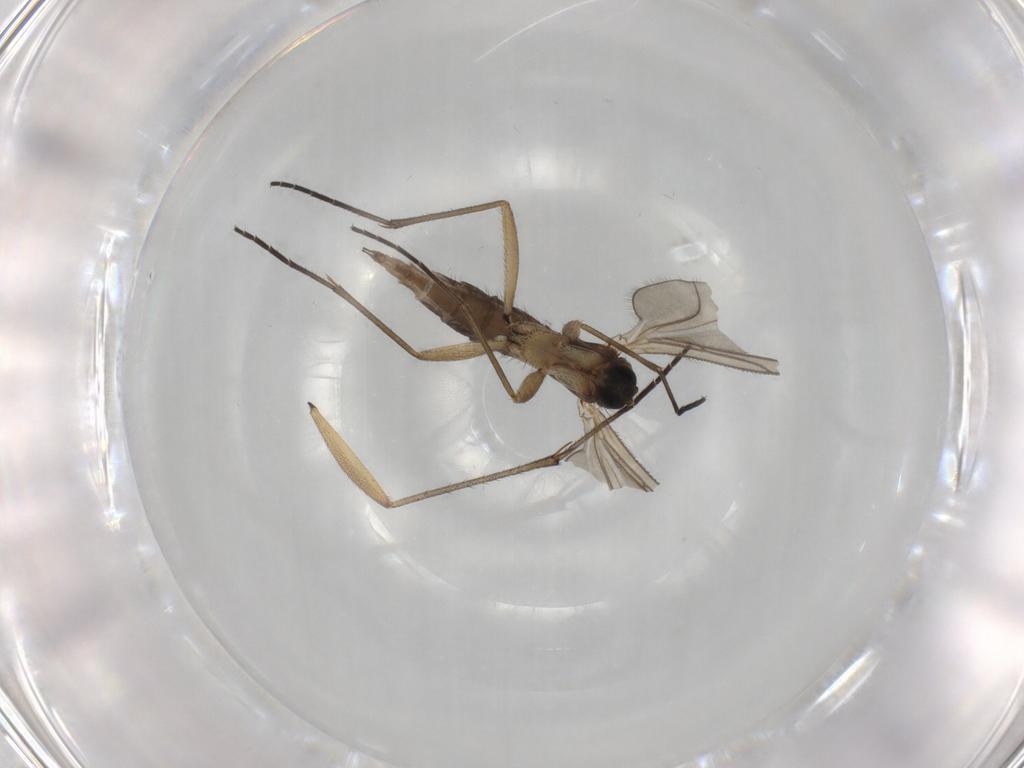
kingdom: Animalia
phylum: Arthropoda
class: Insecta
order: Diptera
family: Sciaridae
